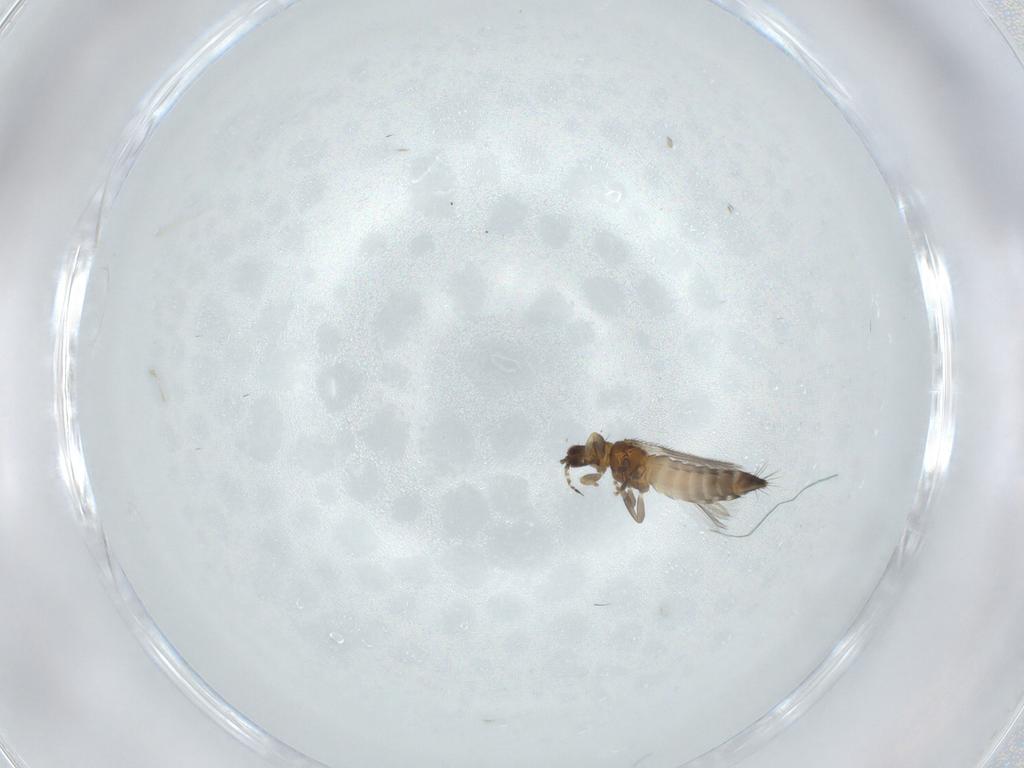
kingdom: Animalia
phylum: Arthropoda
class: Insecta
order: Thysanoptera
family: Thripidae
